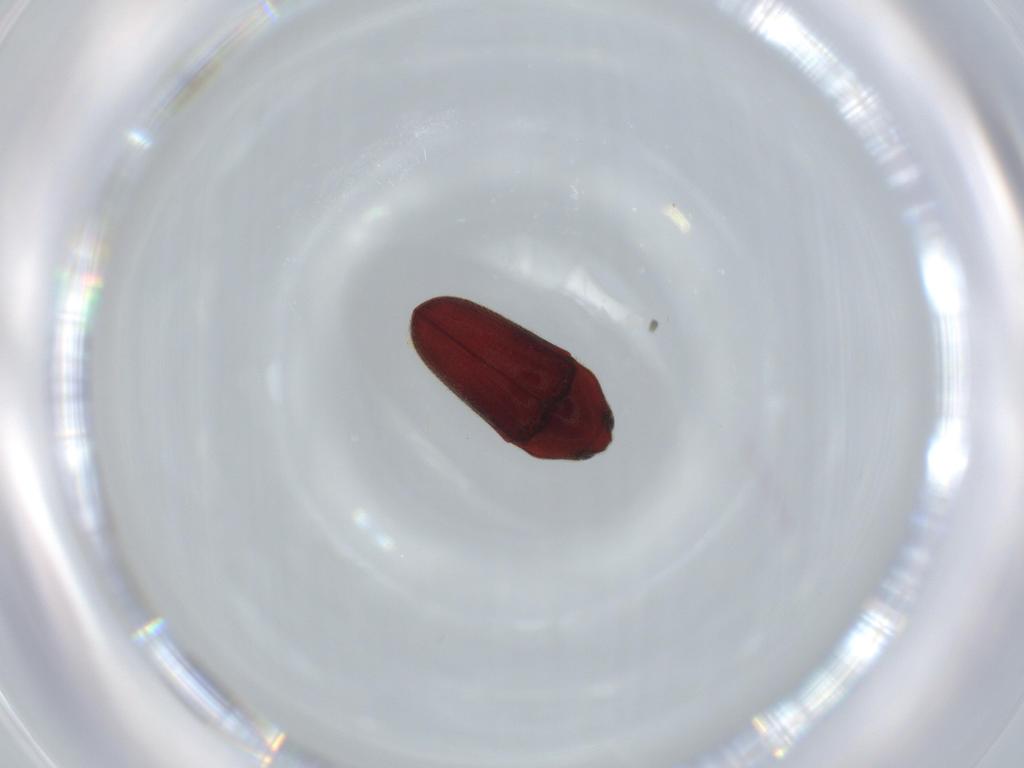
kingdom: Animalia
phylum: Arthropoda
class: Insecta
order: Coleoptera
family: Throscidae
